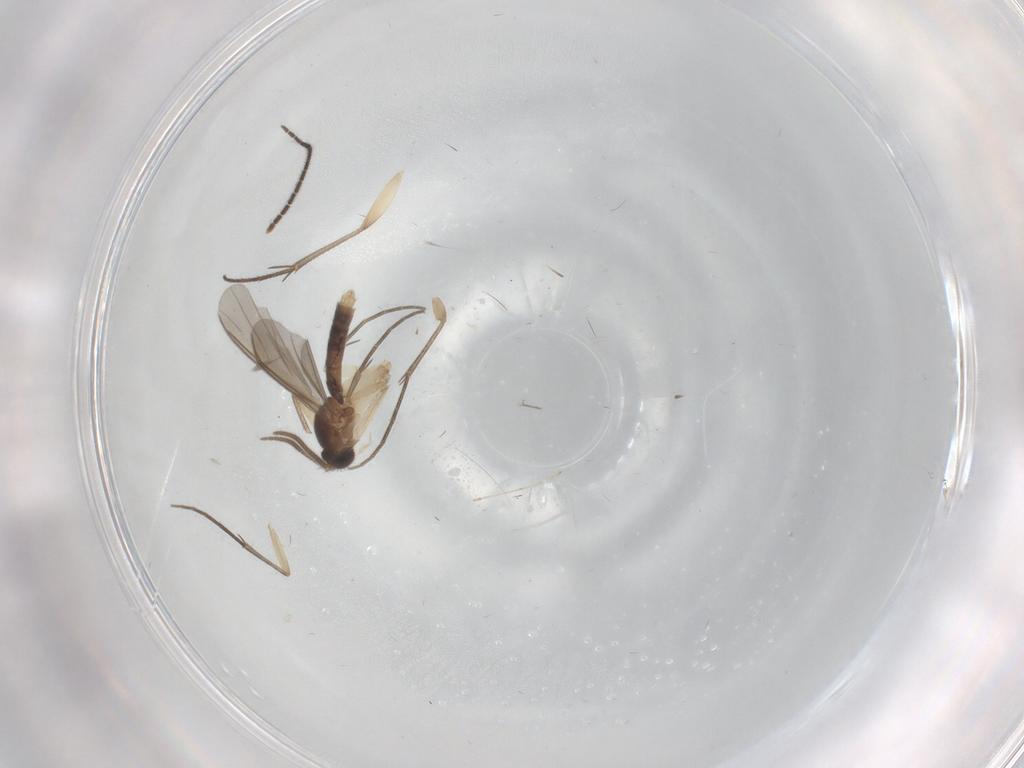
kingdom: Animalia
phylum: Arthropoda
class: Insecta
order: Diptera
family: Mycetophilidae
